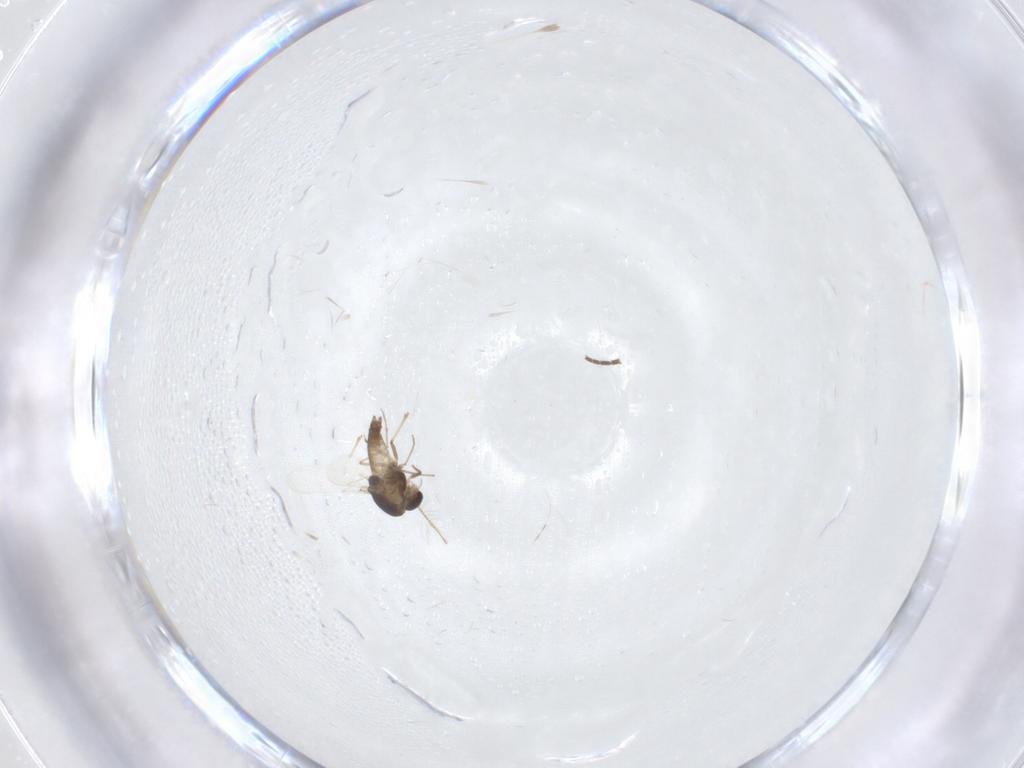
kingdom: Animalia
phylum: Arthropoda
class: Insecta
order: Diptera
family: Chironomidae
